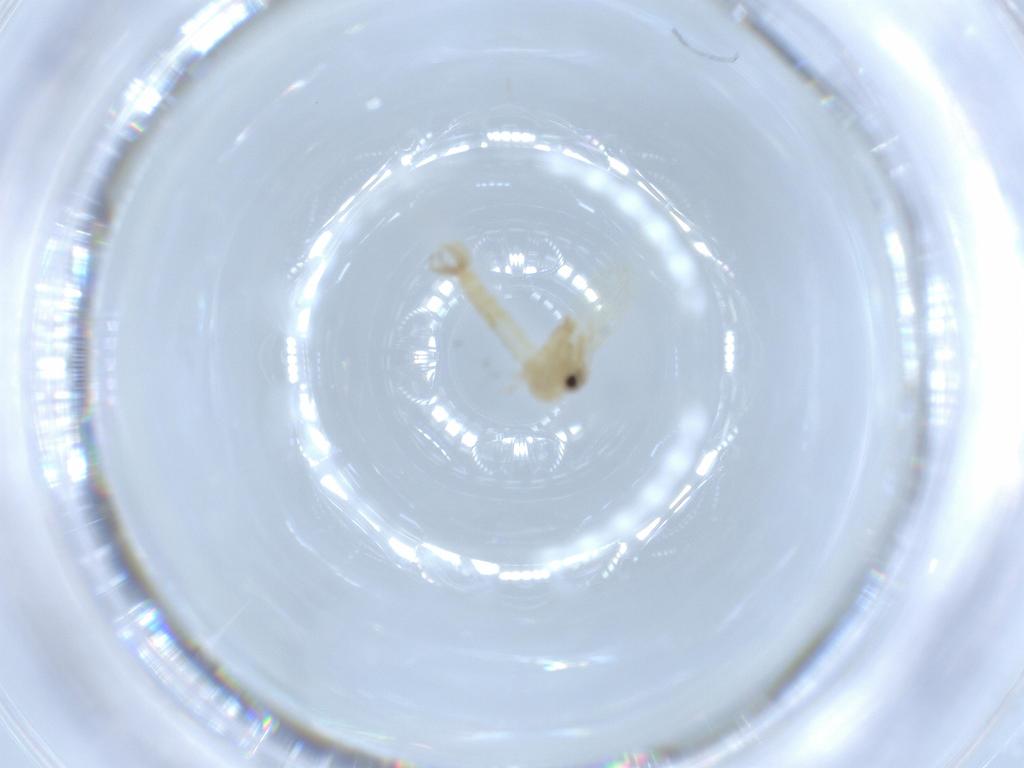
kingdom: Animalia
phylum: Arthropoda
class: Insecta
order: Diptera
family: Psychodidae
